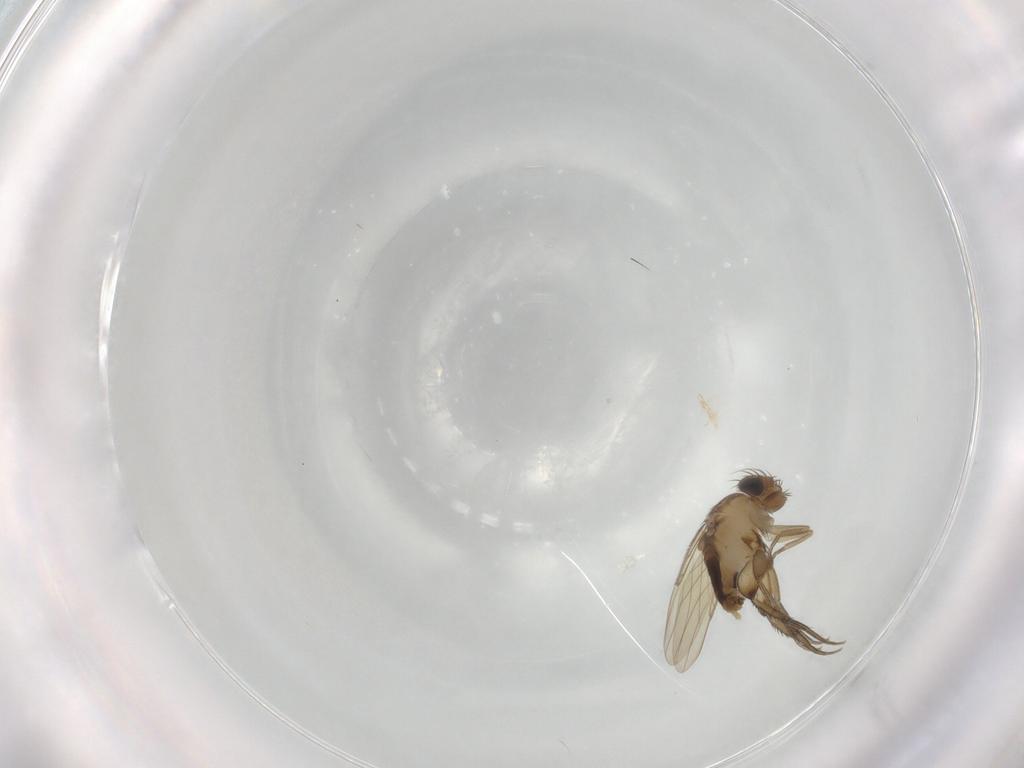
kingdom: Animalia
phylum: Arthropoda
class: Insecta
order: Diptera
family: Phoridae
